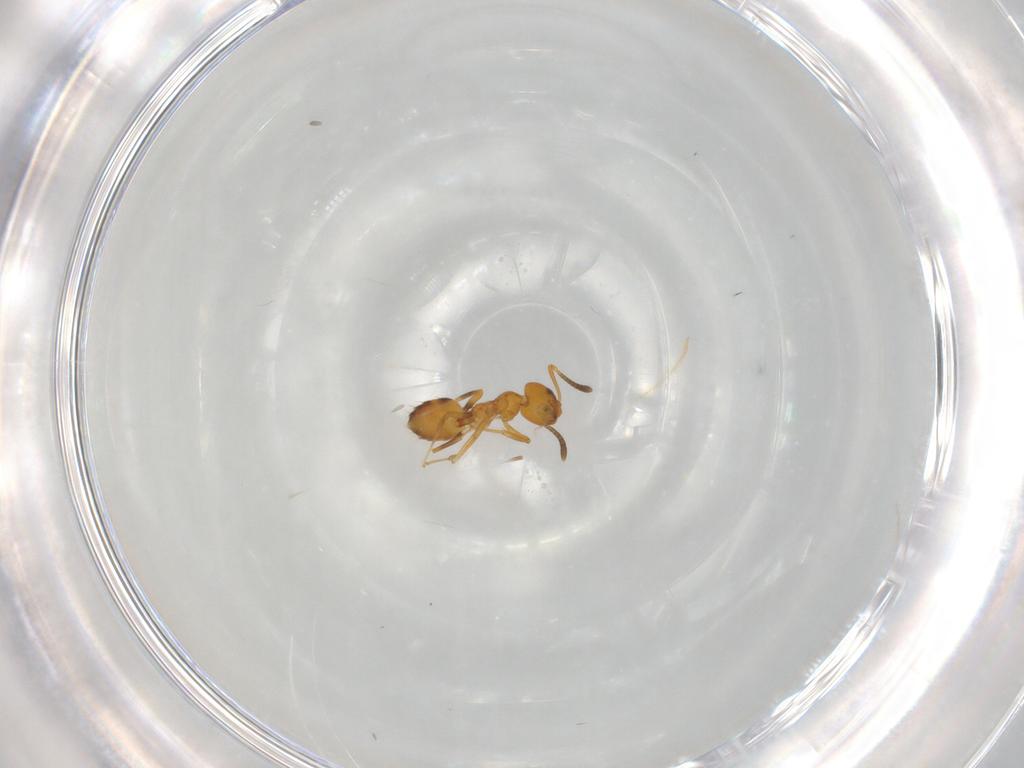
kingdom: Animalia
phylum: Arthropoda
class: Insecta
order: Hymenoptera
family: Formicidae
